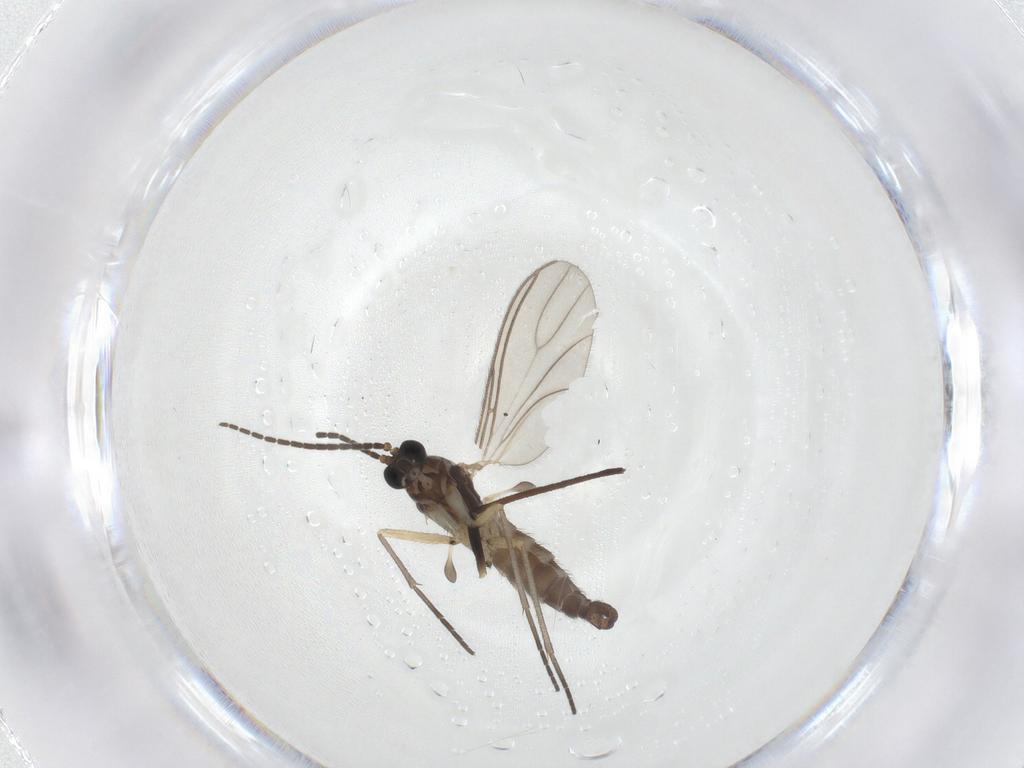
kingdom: Animalia
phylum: Arthropoda
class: Insecta
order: Diptera
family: Sciaridae
